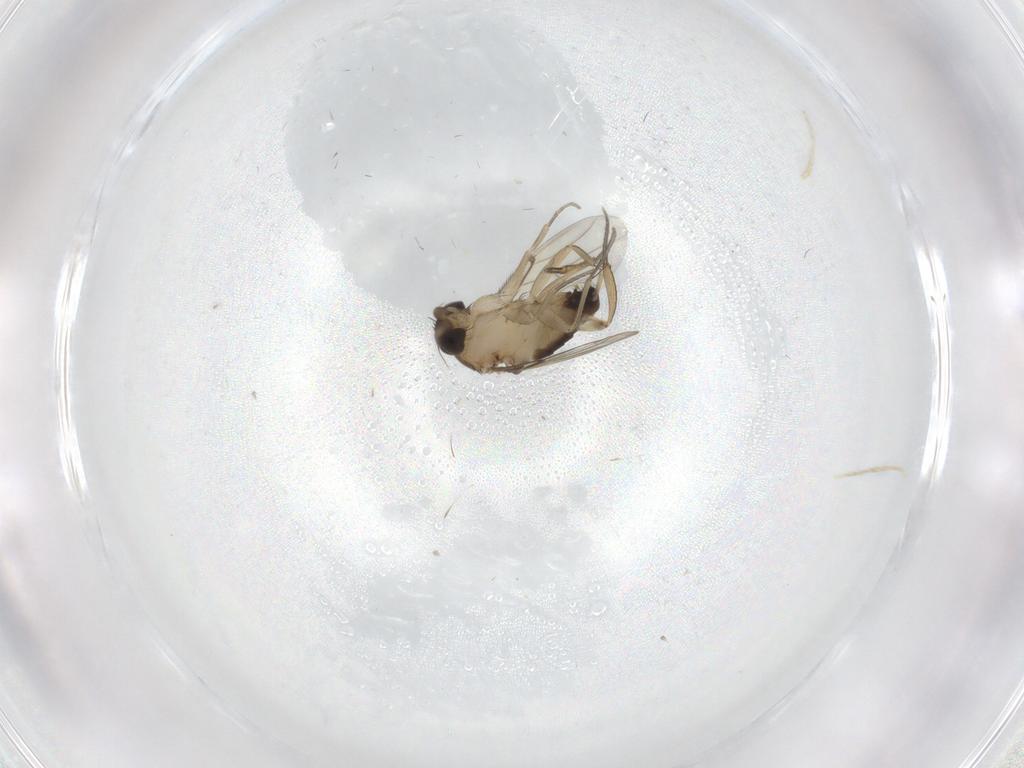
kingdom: Animalia
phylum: Arthropoda
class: Insecta
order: Diptera
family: Phoridae
